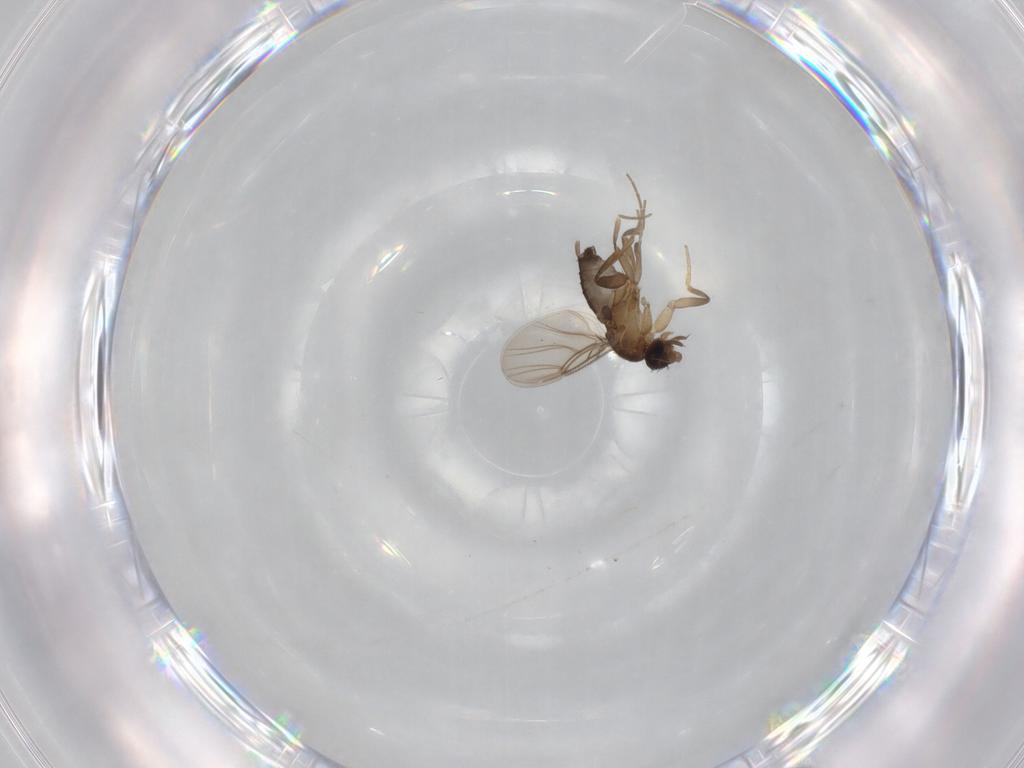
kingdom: Animalia
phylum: Arthropoda
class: Insecta
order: Diptera
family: Phoridae
